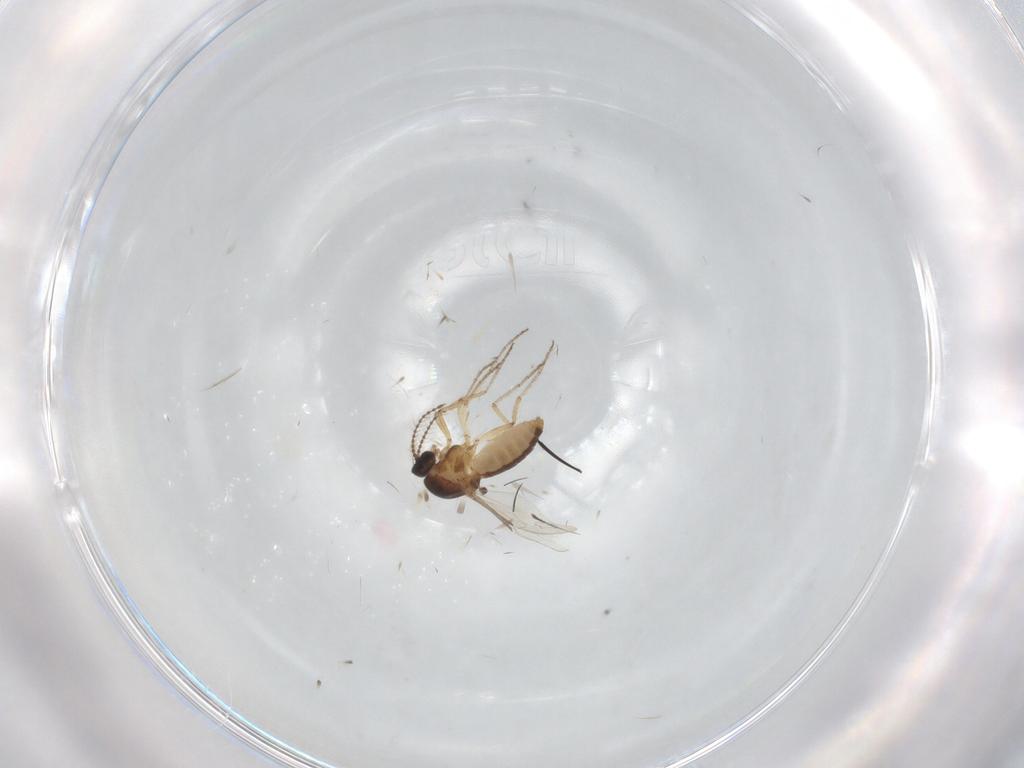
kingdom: Animalia
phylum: Arthropoda
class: Insecta
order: Diptera
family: Ceratopogonidae
